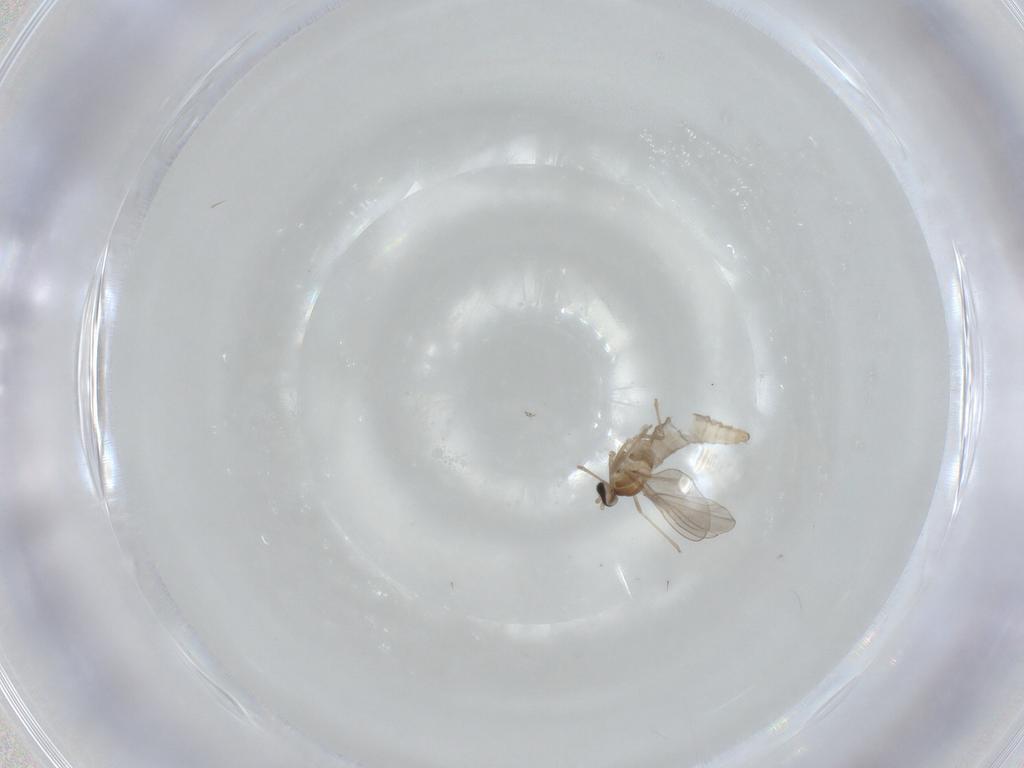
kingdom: Animalia
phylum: Arthropoda
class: Insecta
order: Diptera
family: Cecidomyiidae
